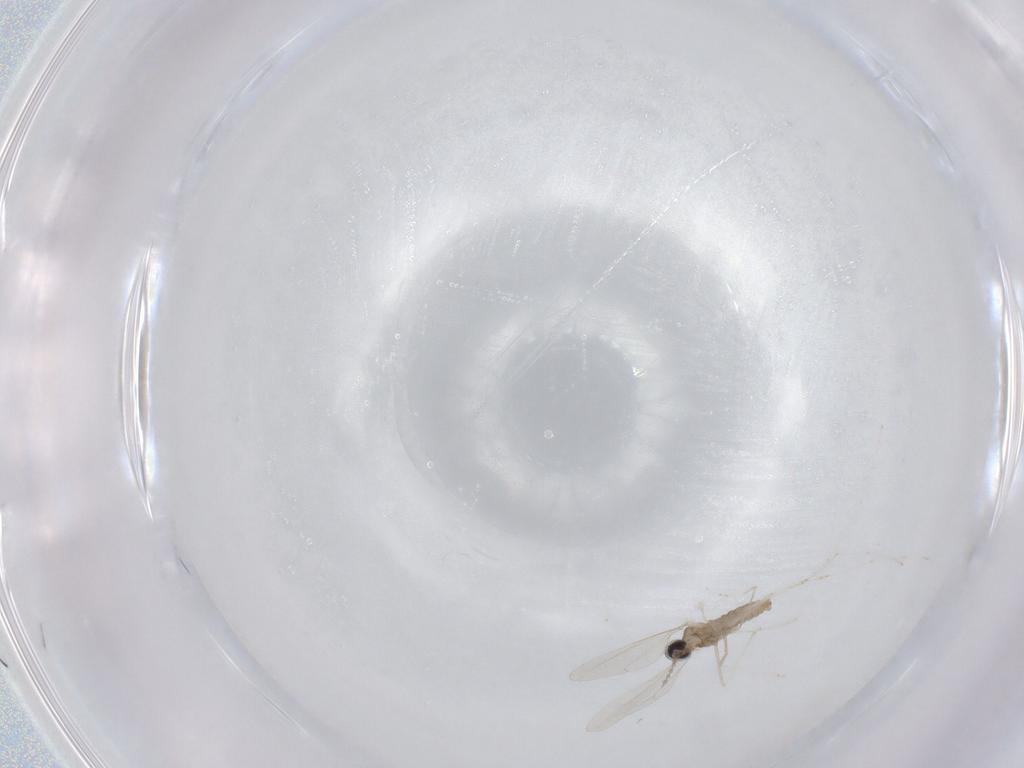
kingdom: Animalia
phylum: Arthropoda
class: Insecta
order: Diptera
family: Cecidomyiidae
